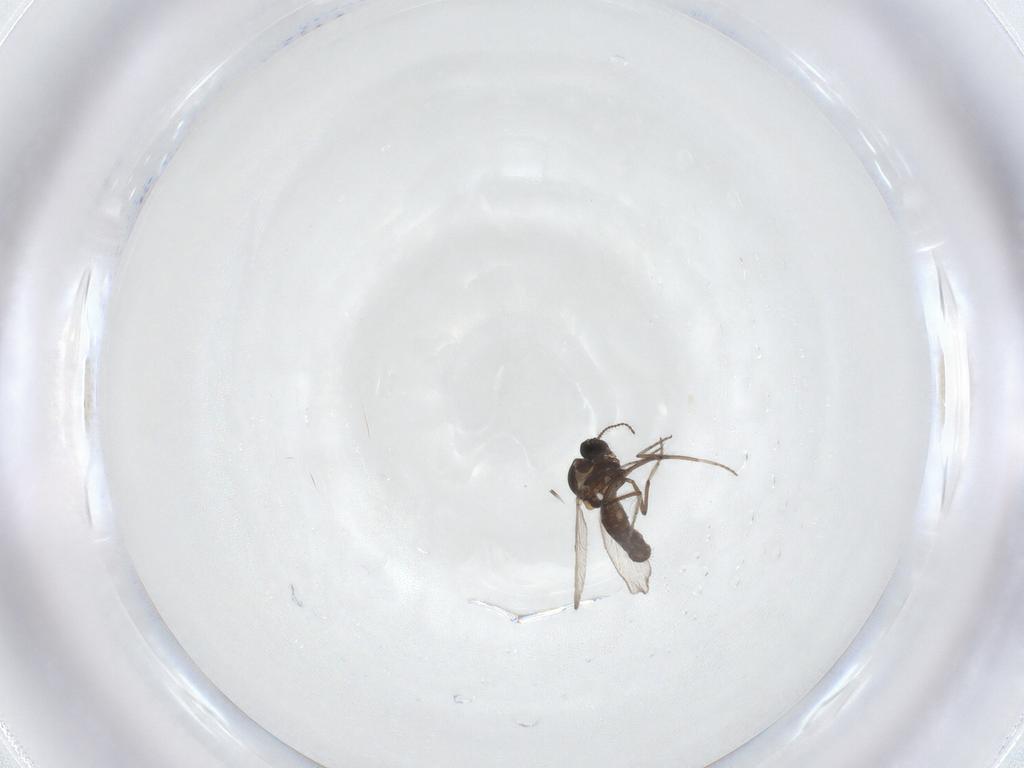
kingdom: Animalia
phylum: Arthropoda
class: Insecta
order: Diptera
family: Ceratopogonidae
